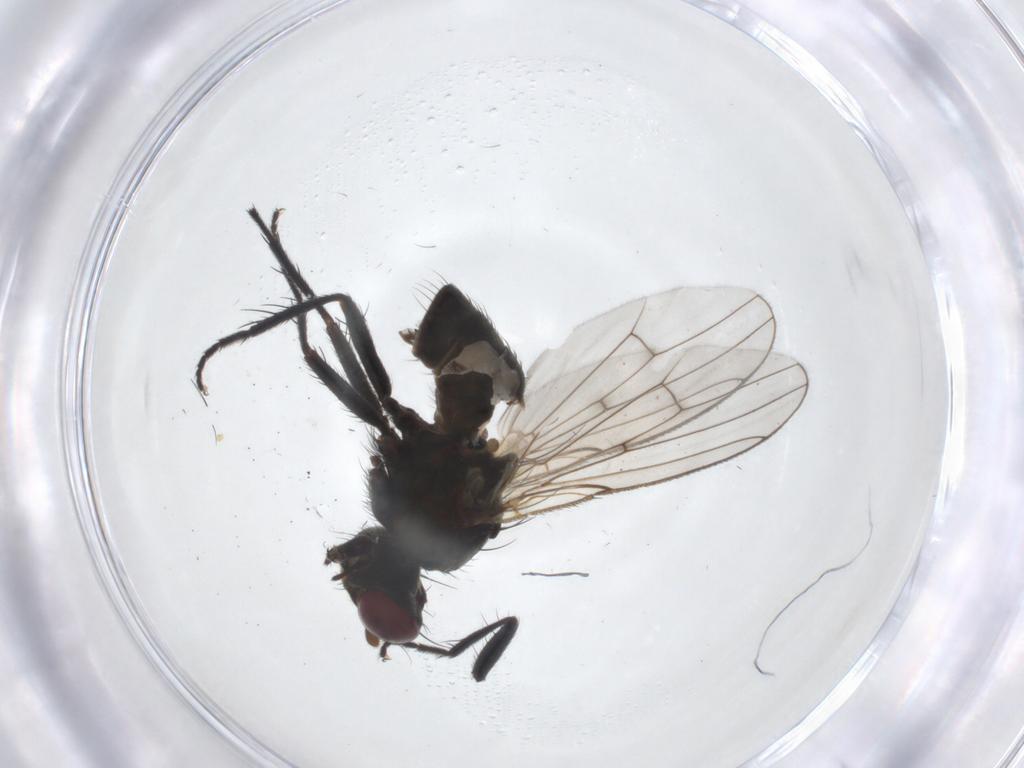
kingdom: Animalia
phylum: Arthropoda
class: Insecta
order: Diptera
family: Muscidae
